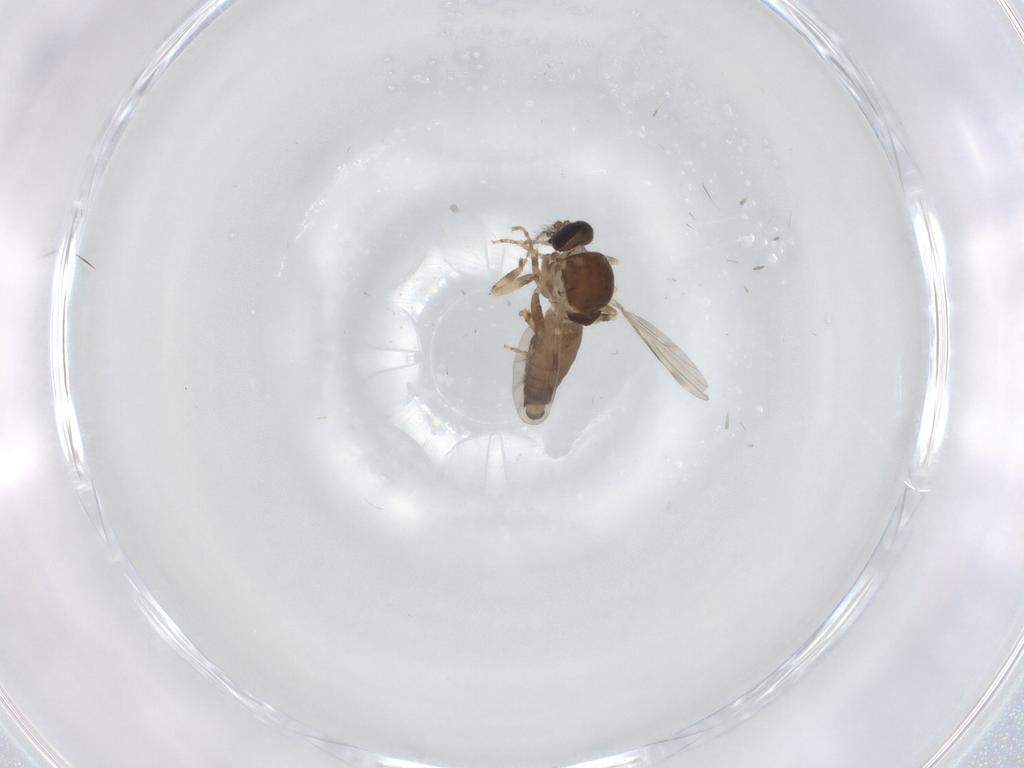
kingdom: Animalia
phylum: Arthropoda
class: Insecta
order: Diptera
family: Ceratopogonidae
